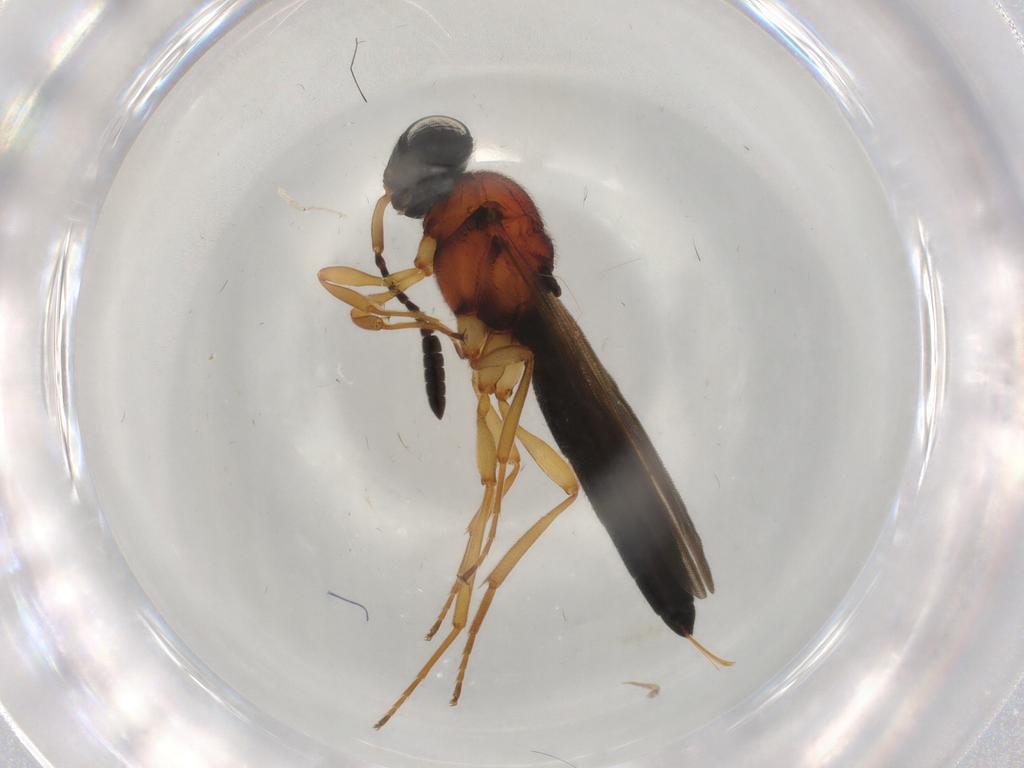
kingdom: Animalia
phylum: Arthropoda
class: Insecta
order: Hymenoptera
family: Scelionidae
